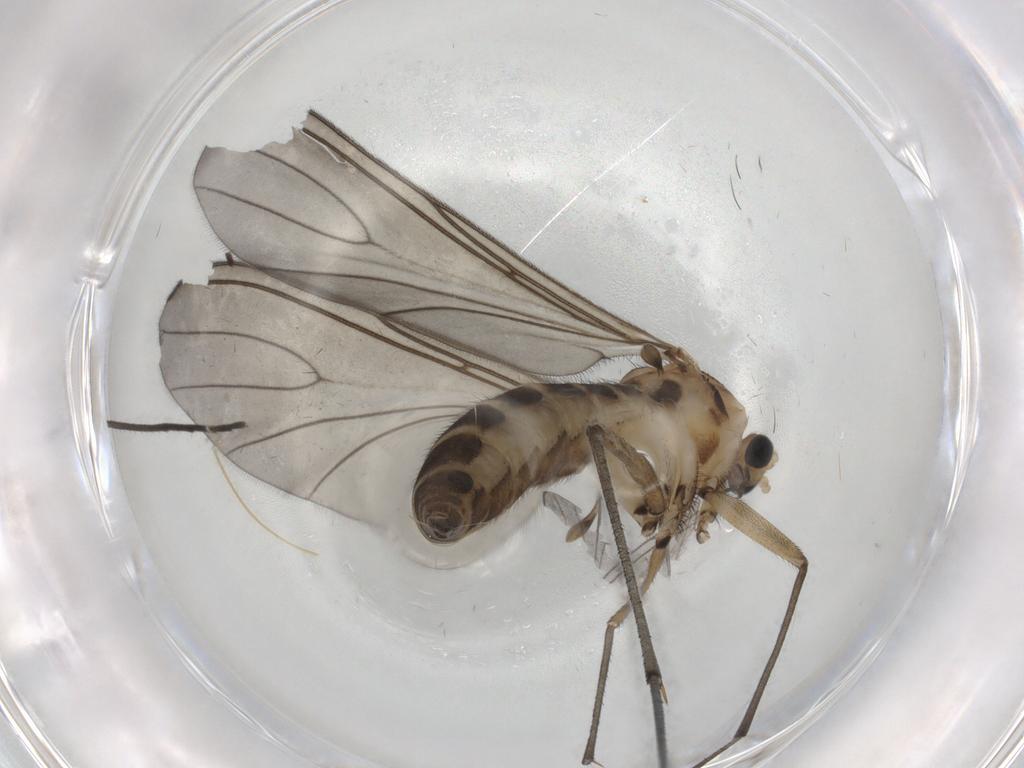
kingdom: Animalia
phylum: Arthropoda
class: Insecta
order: Diptera
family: Sciaridae
